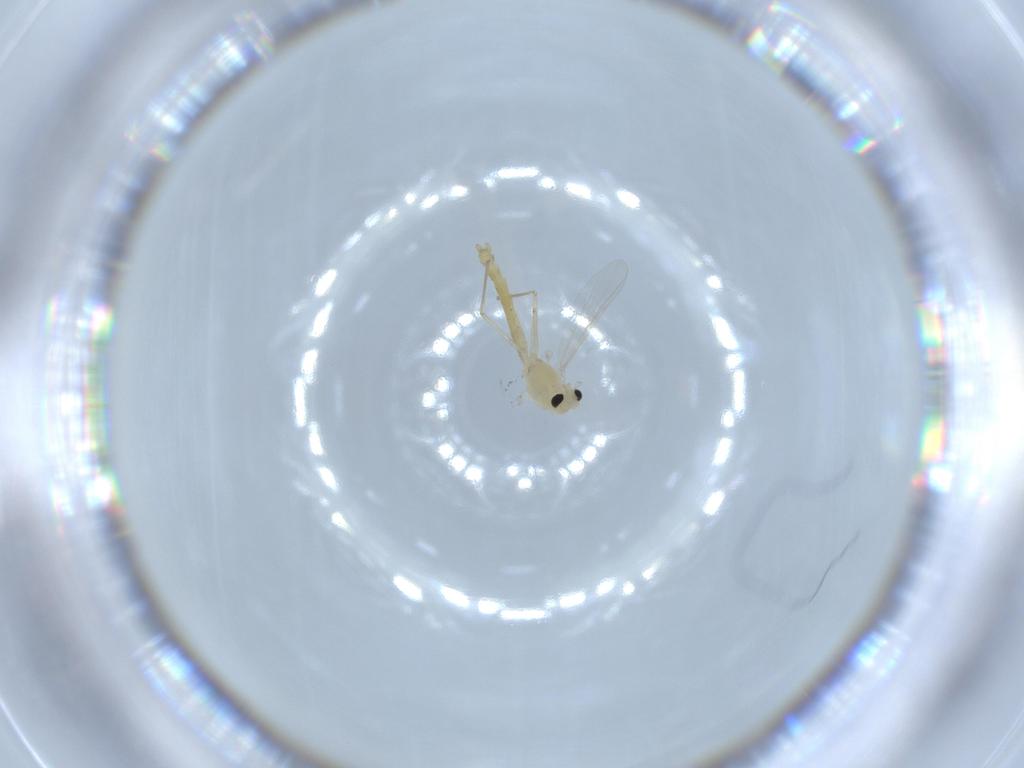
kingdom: Animalia
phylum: Arthropoda
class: Insecta
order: Diptera
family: Chironomidae
